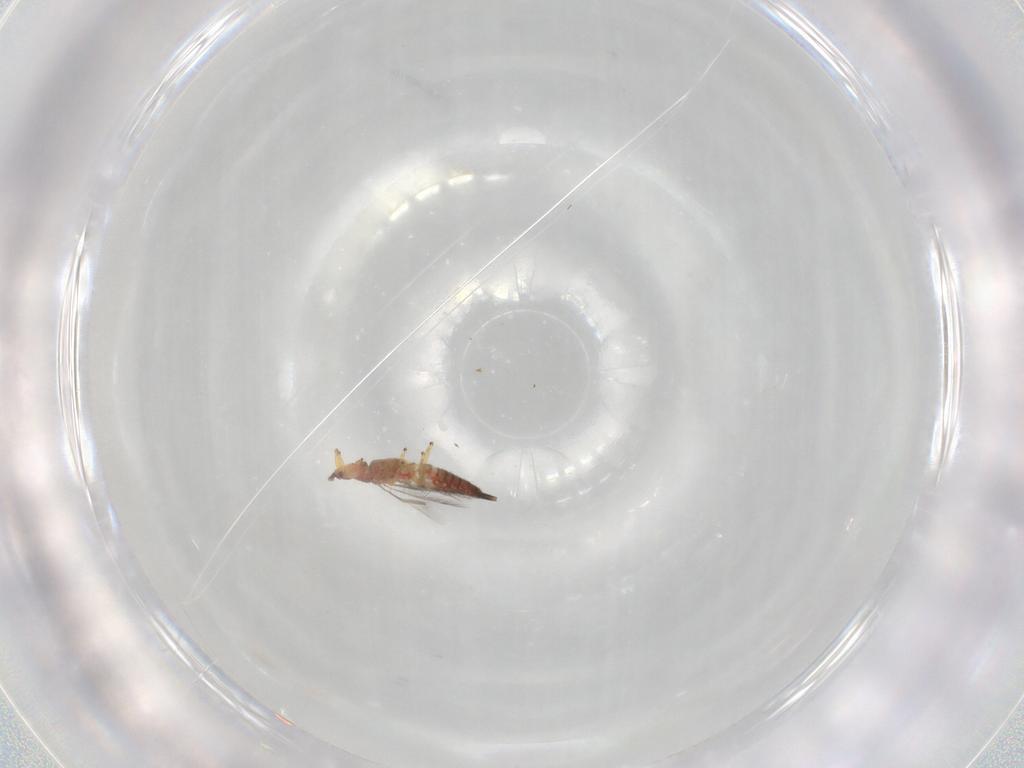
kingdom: Animalia
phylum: Arthropoda
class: Insecta
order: Thysanoptera
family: Phlaeothripidae
